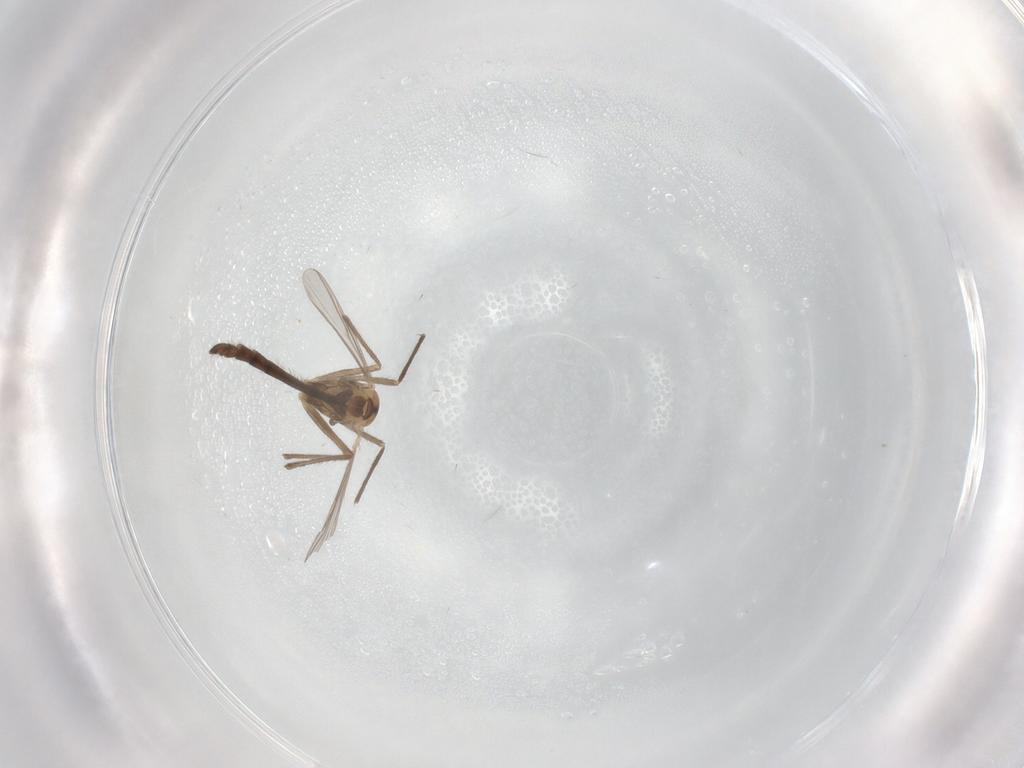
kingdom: Animalia
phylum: Arthropoda
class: Insecta
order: Diptera
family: Chironomidae
